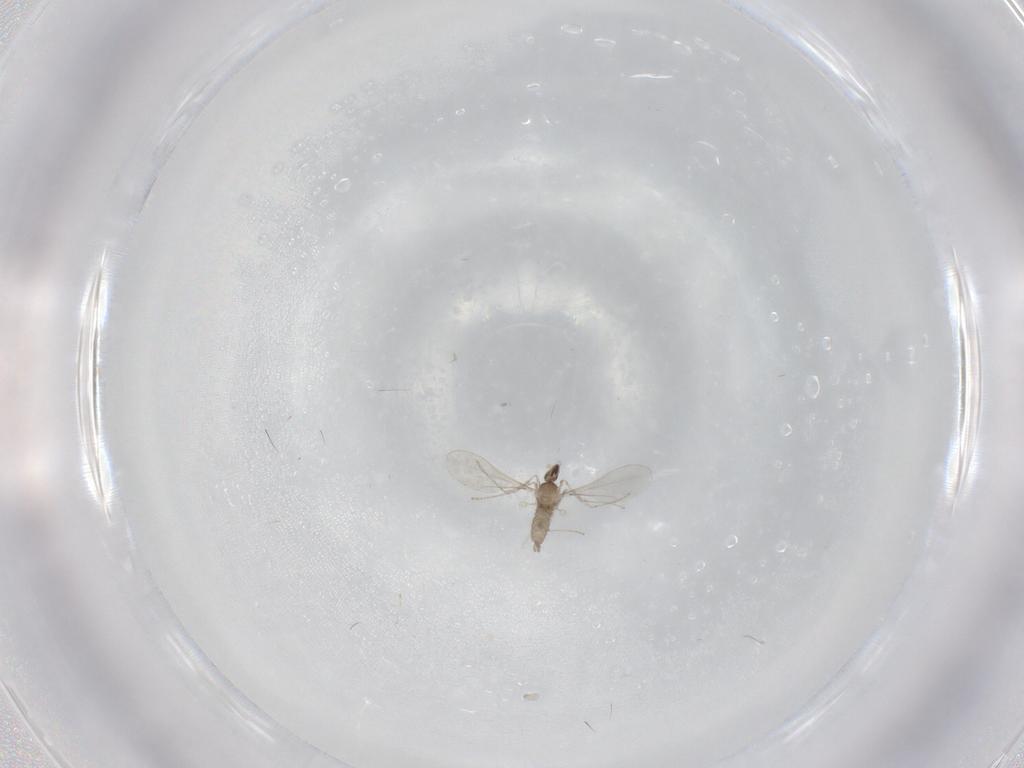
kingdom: Animalia
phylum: Arthropoda
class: Insecta
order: Diptera
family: Cecidomyiidae
